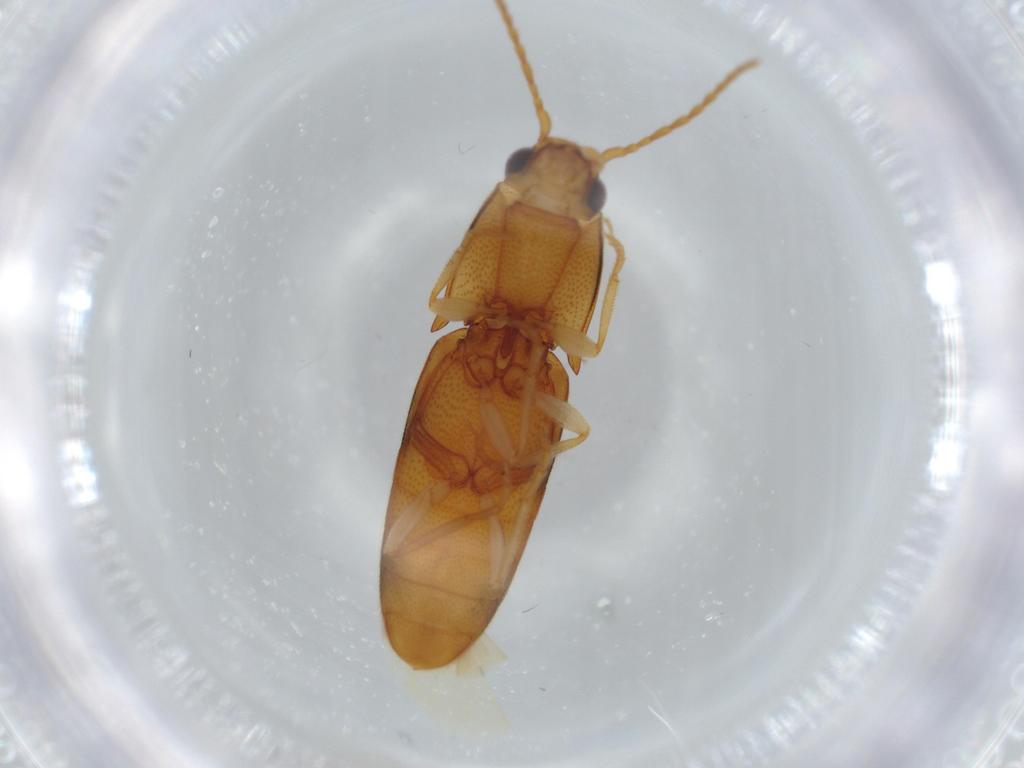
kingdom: Animalia
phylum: Arthropoda
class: Insecta
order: Coleoptera
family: Elateridae
